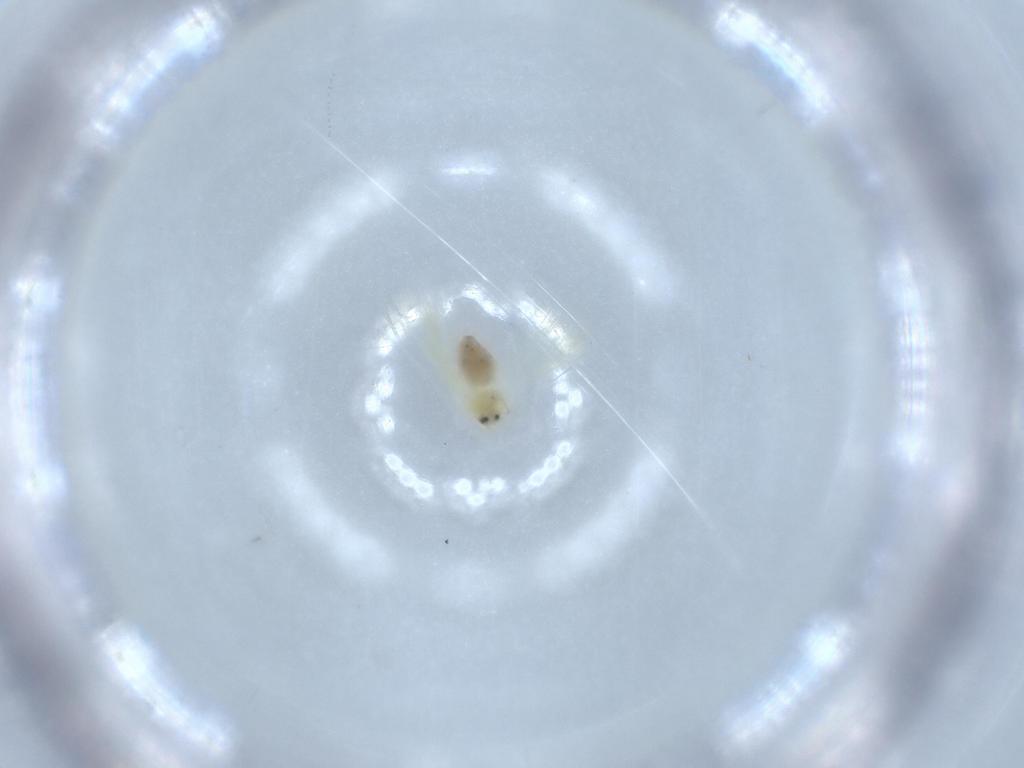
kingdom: Animalia
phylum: Arthropoda
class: Insecta
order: Hemiptera
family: Aleyrodidae
